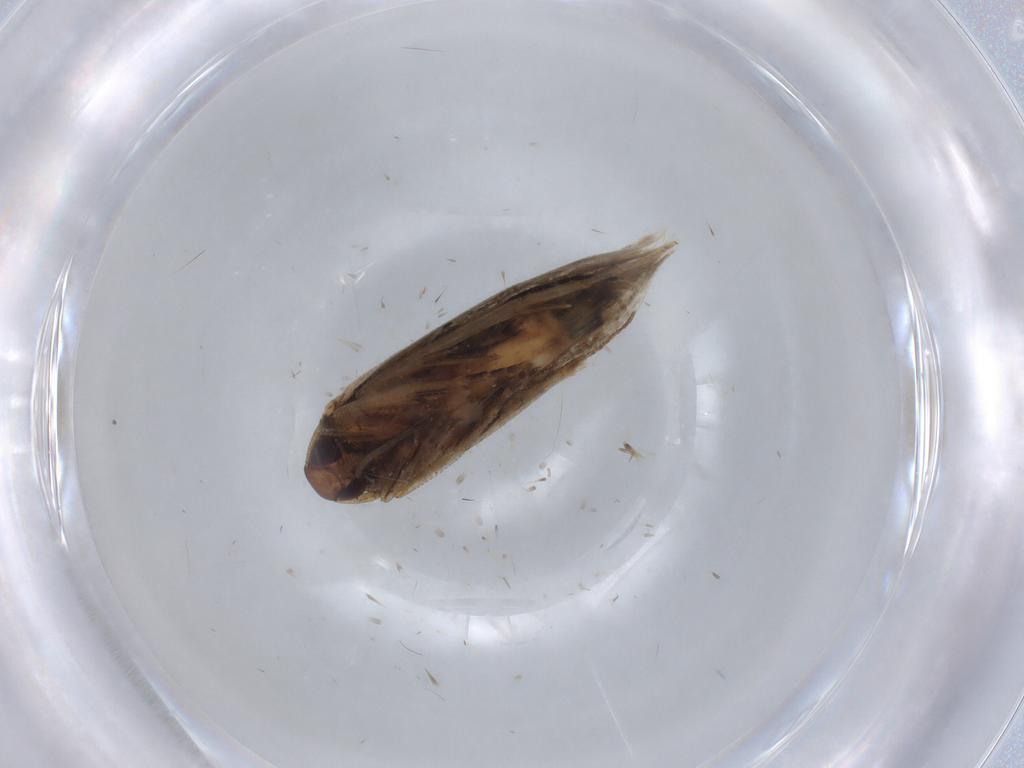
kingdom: Animalia
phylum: Arthropoda
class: Insecta
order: Lepidoptera
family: Cosmopterigidae
